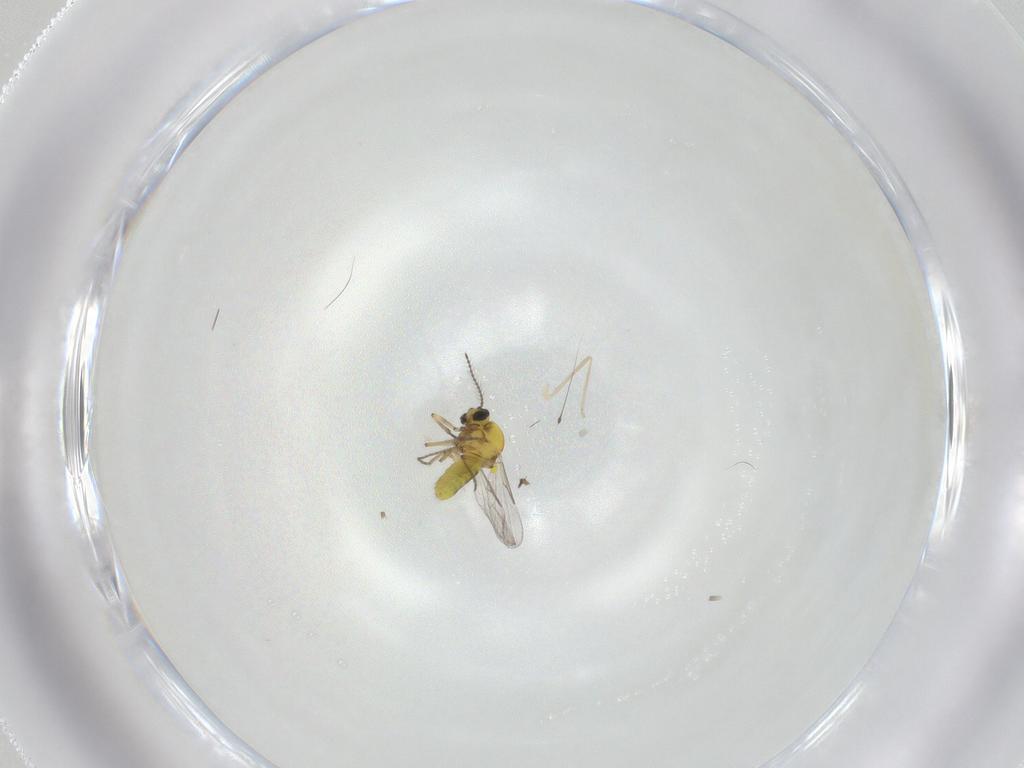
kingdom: Animalia
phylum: Arthropoda
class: Insecta
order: Diptera
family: Cecidomyiidae
